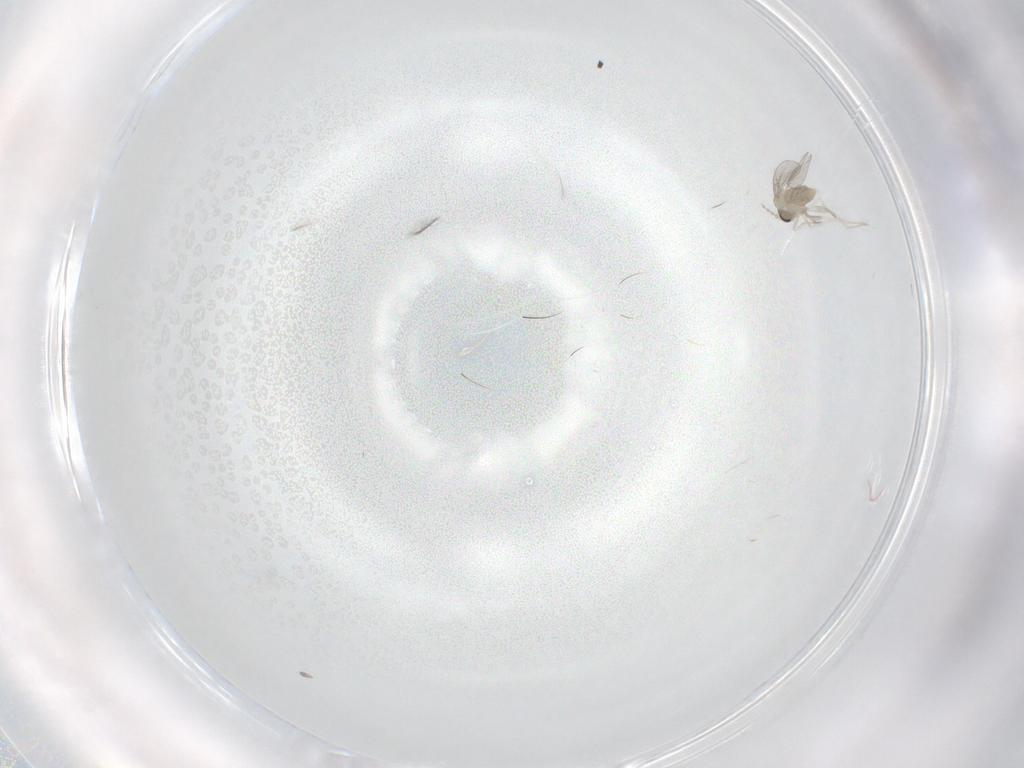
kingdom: Animalia
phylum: Arthropoda
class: Insecta
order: Diptera
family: Cecidomyiidae
